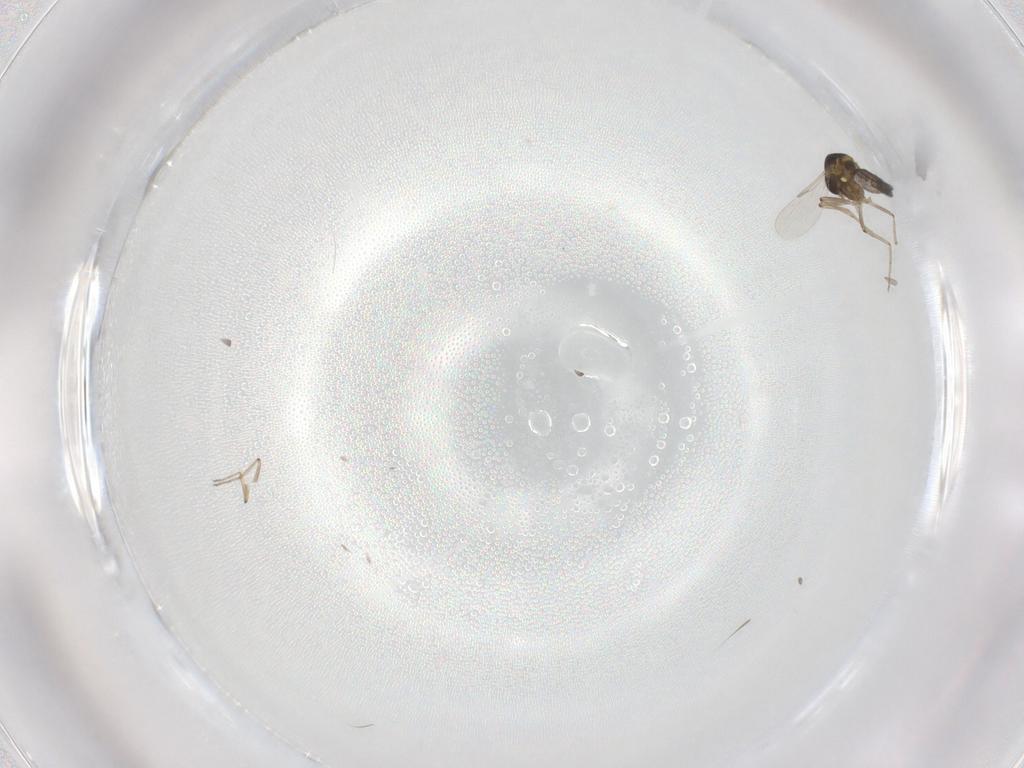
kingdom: Animalia
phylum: Arthropoda
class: Insecta
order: Diptera
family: Ceratopogonidae
